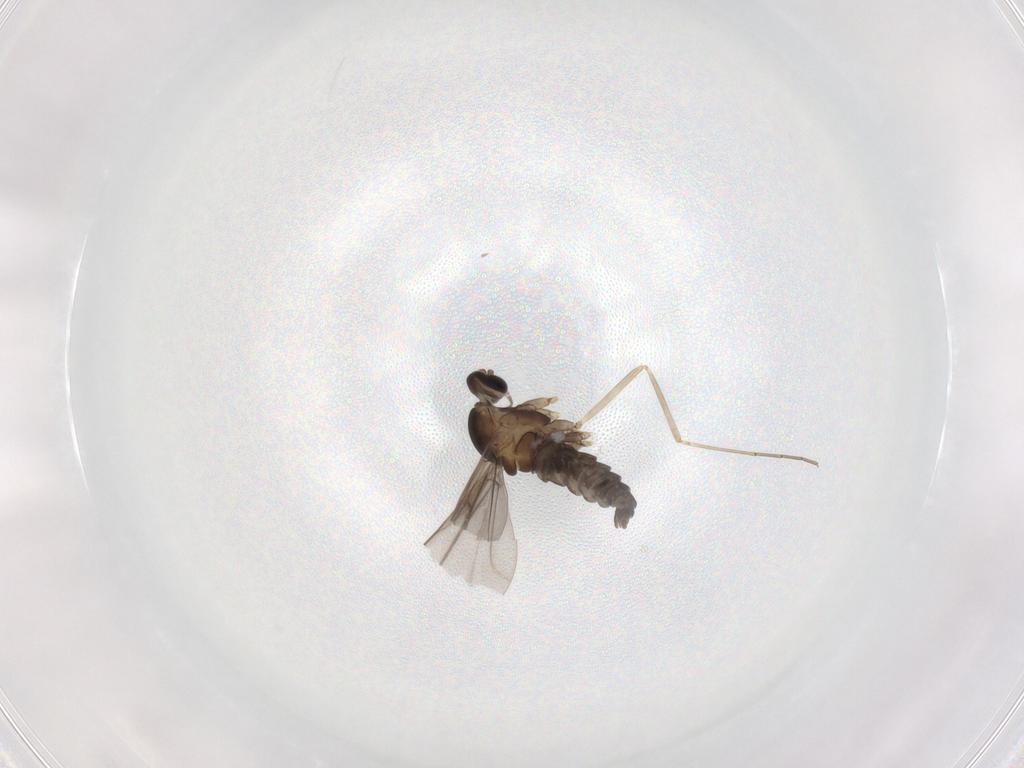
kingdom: Animalia
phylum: Arthropoda
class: Insecta
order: Diptera
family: Cecidomyiidae
